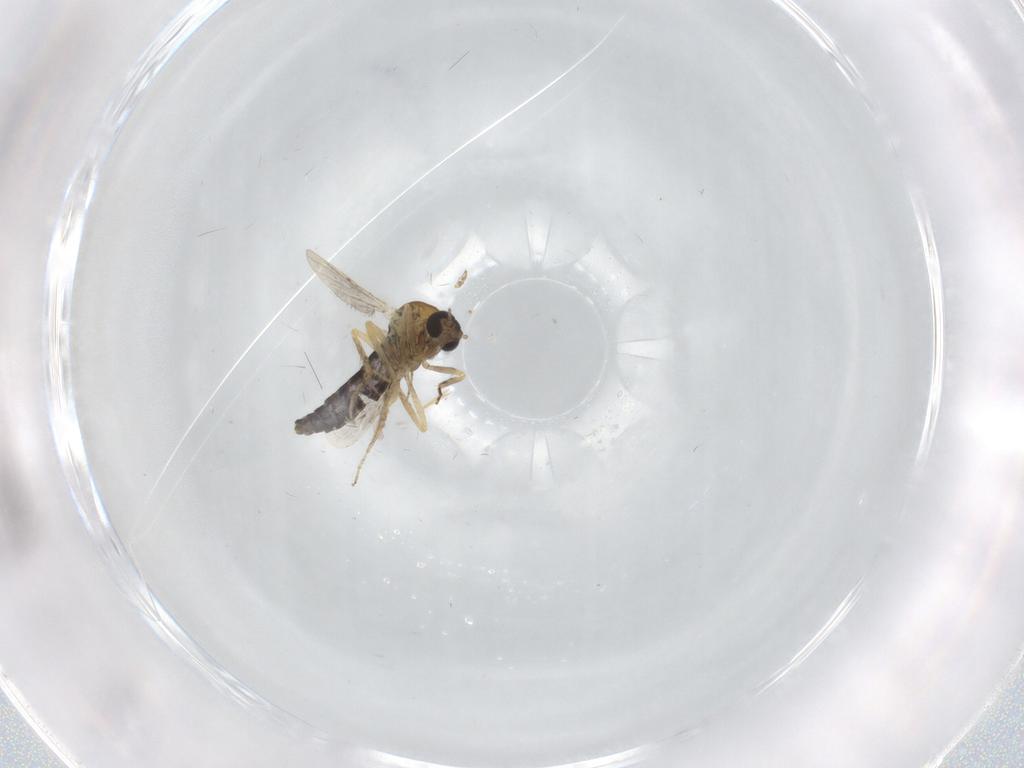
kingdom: Animalia
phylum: Arthropoda
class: Insecta
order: Diptera
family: Ceratopogonidae
